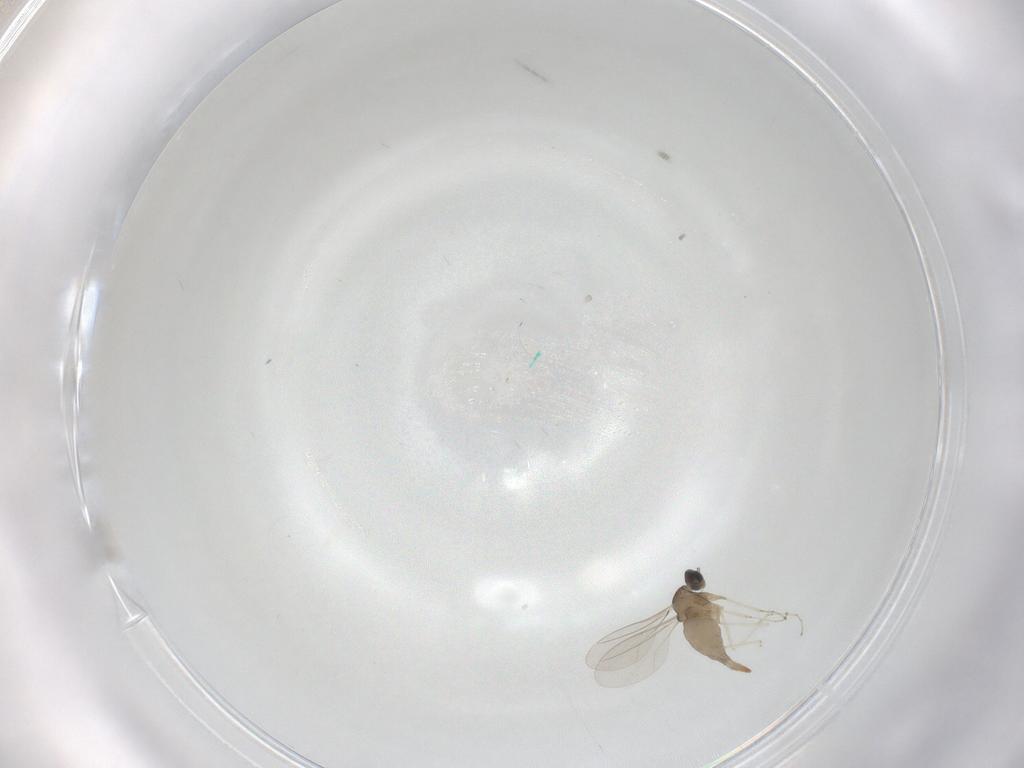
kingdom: Animalia
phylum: Arthropoda
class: Insecta
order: Diptera
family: Cecidomyiidae
